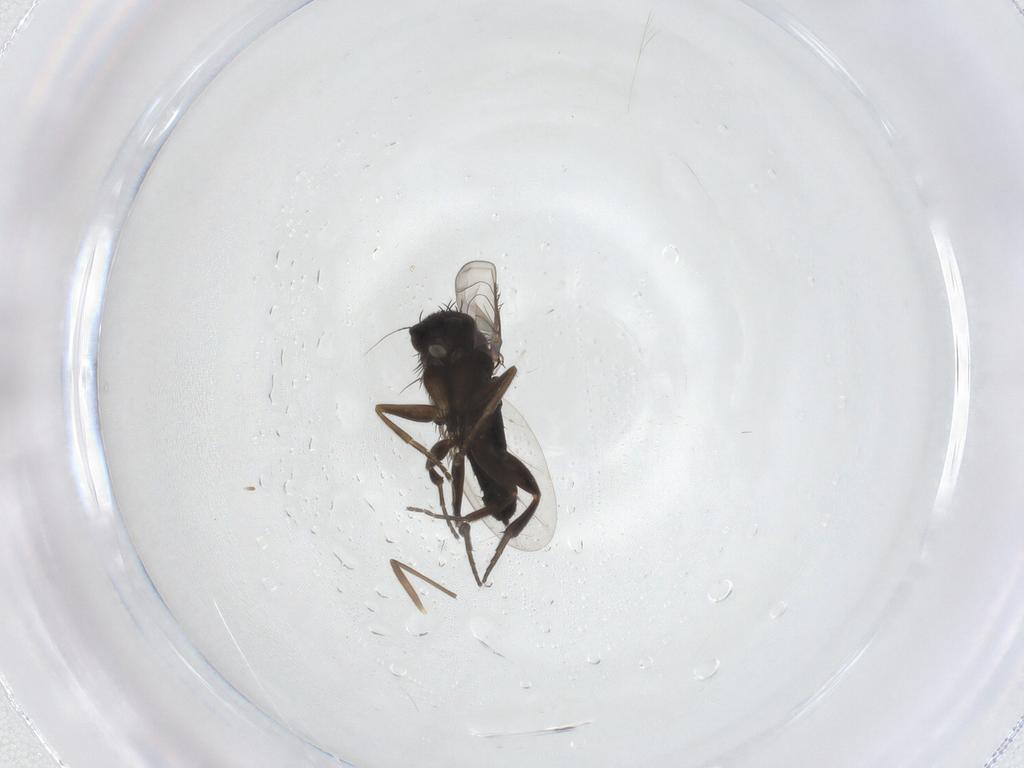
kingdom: Animalia
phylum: Arthropoda
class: Insecta
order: Diptera
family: Chironomidae
